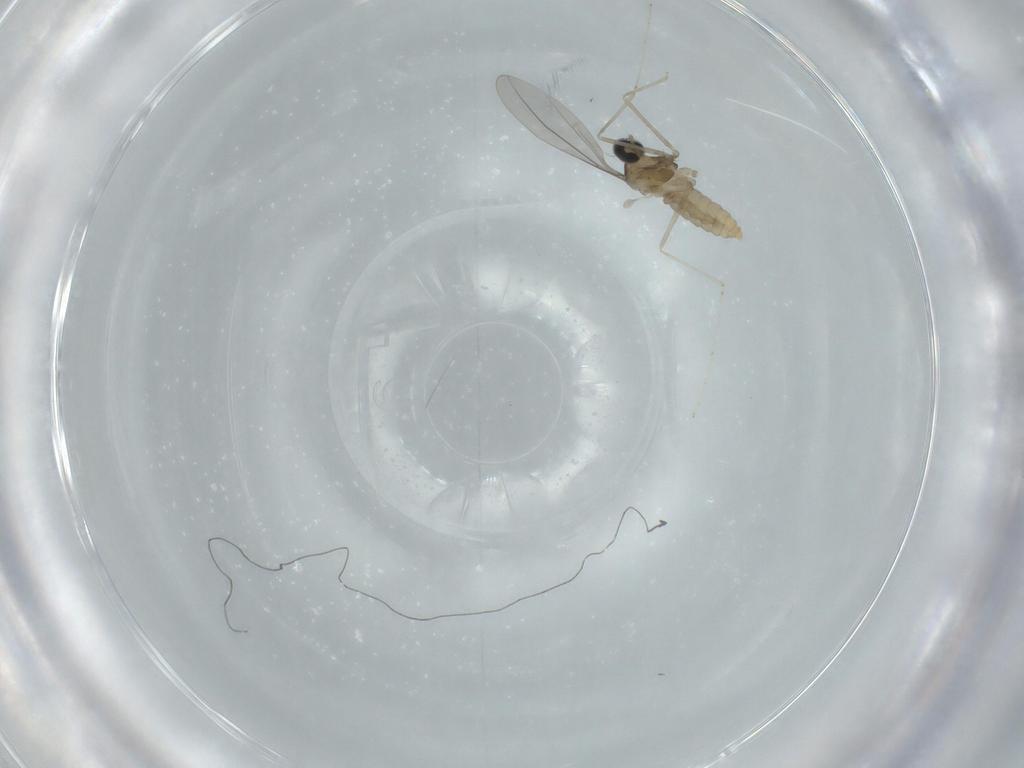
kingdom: Animalia
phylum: Arthropoda
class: Insecta
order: Diptera
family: Cecidomyiidae
